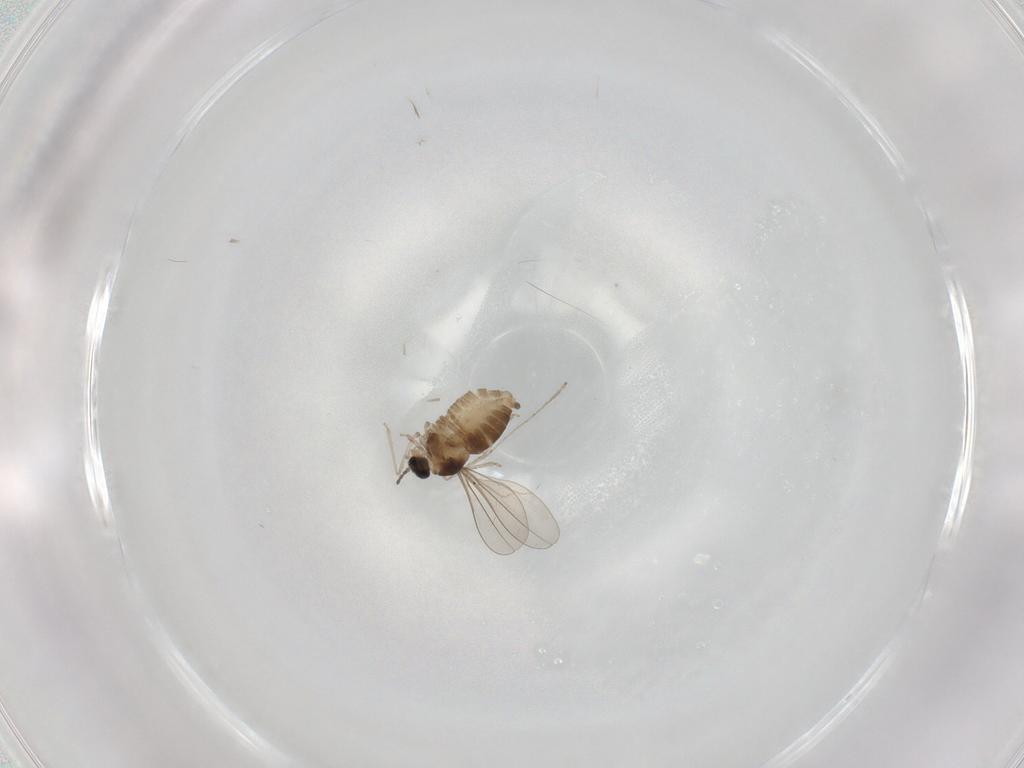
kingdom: Animalia
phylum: Arthropoda
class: Insecta
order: Diptera
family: Cecidomyiidae
